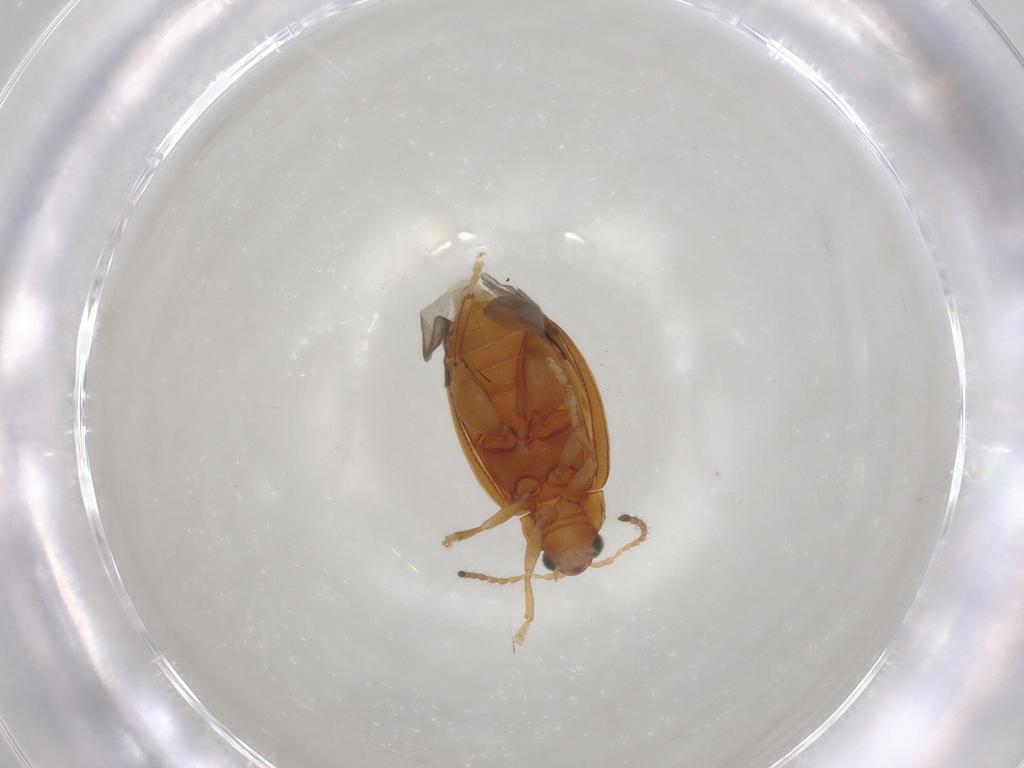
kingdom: Animalia
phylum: Arthropoda
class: Insecta
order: Coleoptera
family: Chrysomelidae
